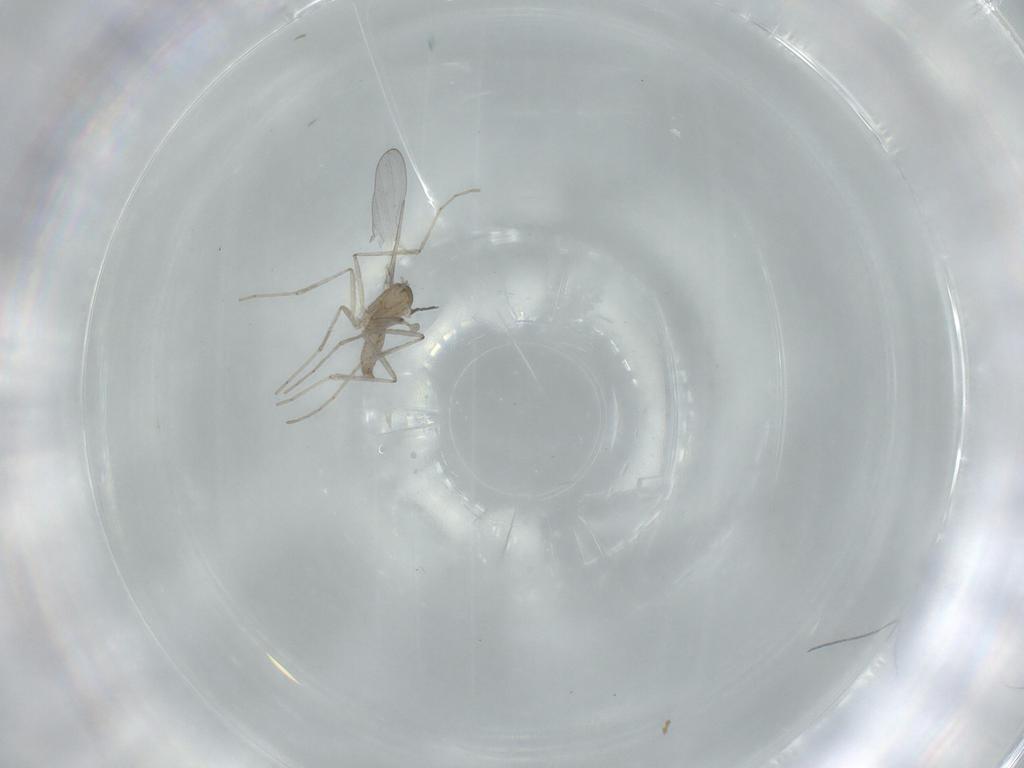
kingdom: Animalia
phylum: Arthropoda
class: Insecta
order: Diptera
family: Cecidomyiidae
